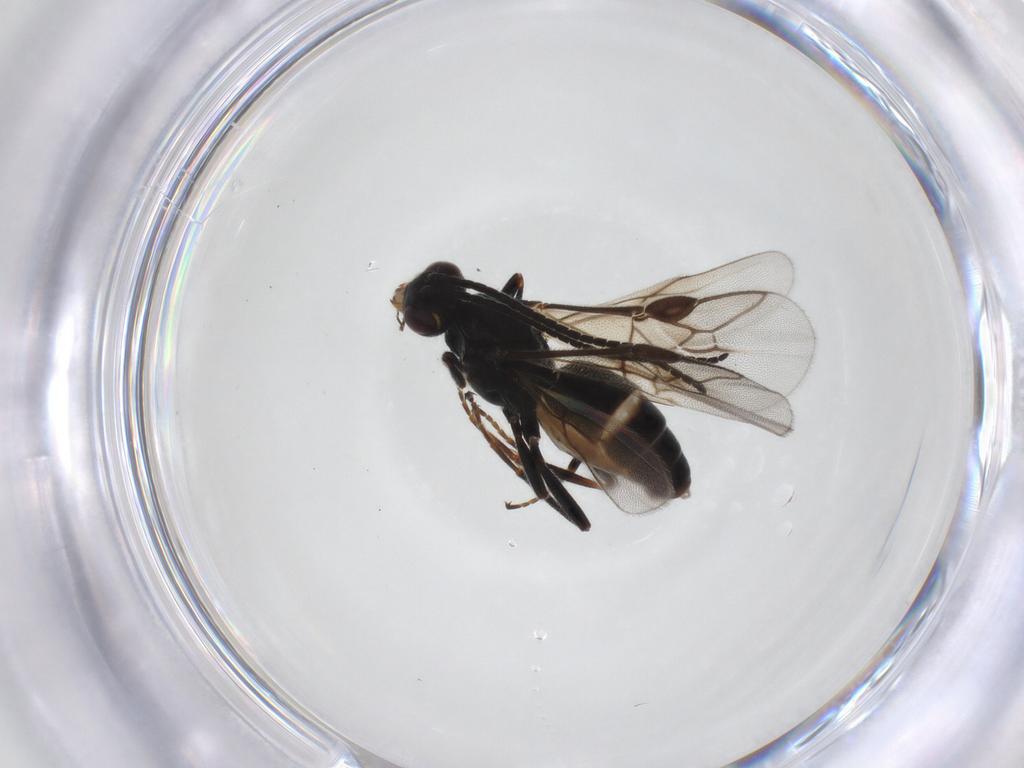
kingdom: Animalia
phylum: Arthropoda
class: Insecta
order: Hymenoptera
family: Braconidae
